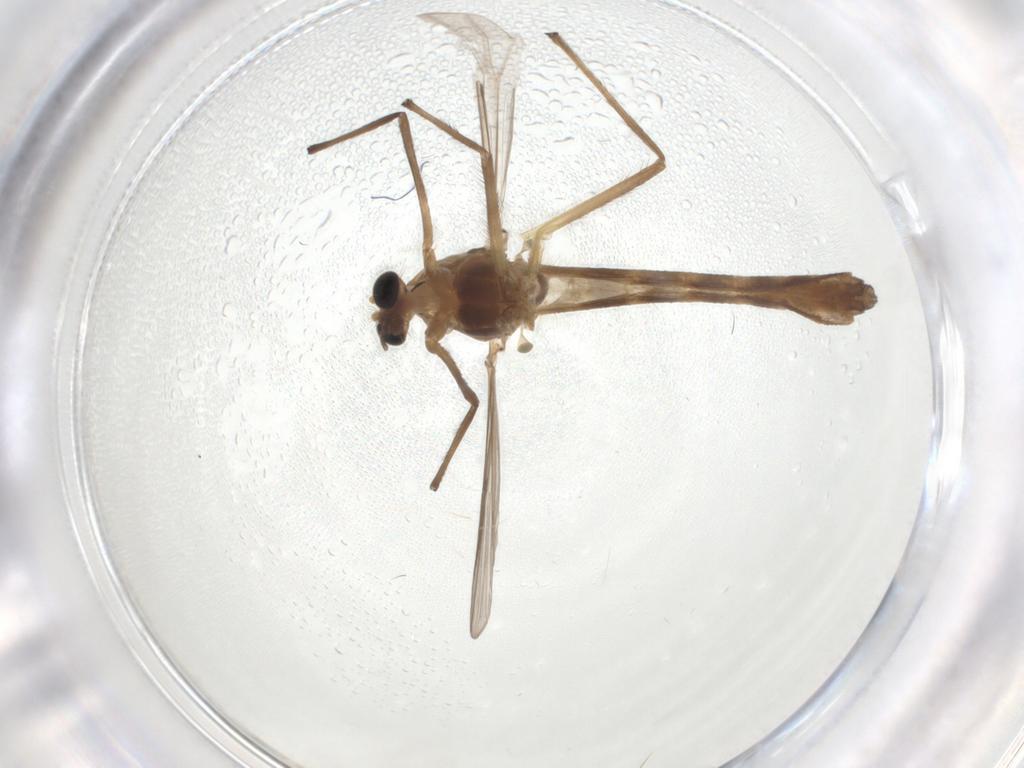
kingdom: Animalia
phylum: Arthropoda
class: Insecta
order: Diptera
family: Chironomidae
